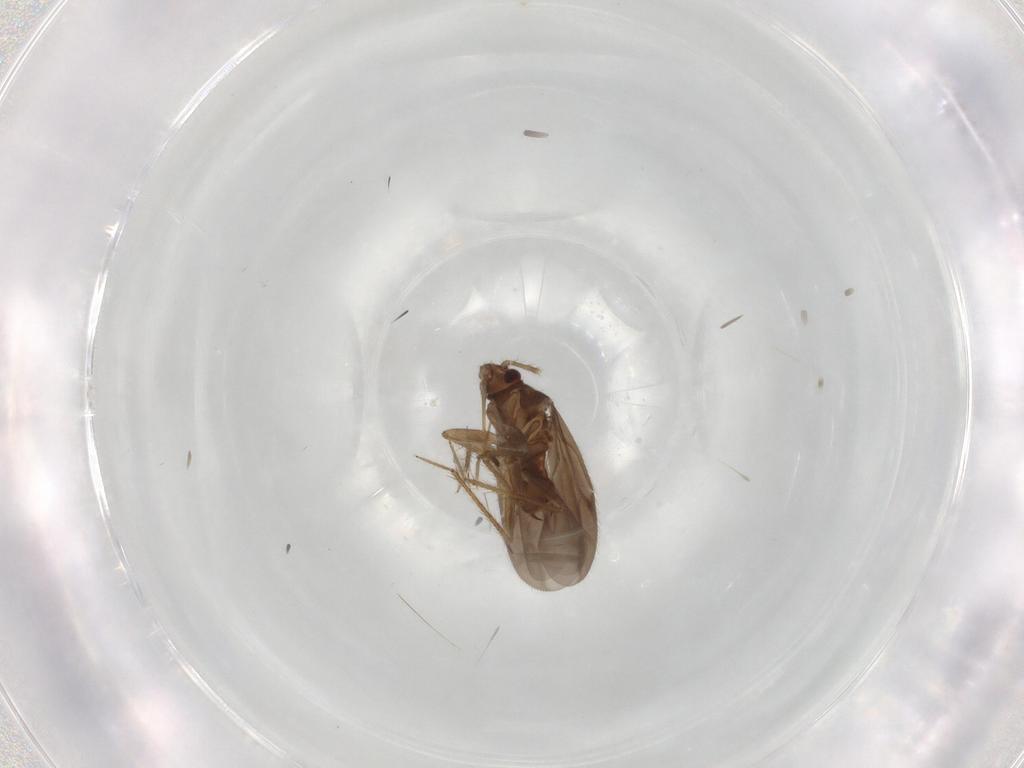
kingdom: Animalia
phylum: Arthropoda
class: Insecta
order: Hemiptera
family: Ceratocombidae
